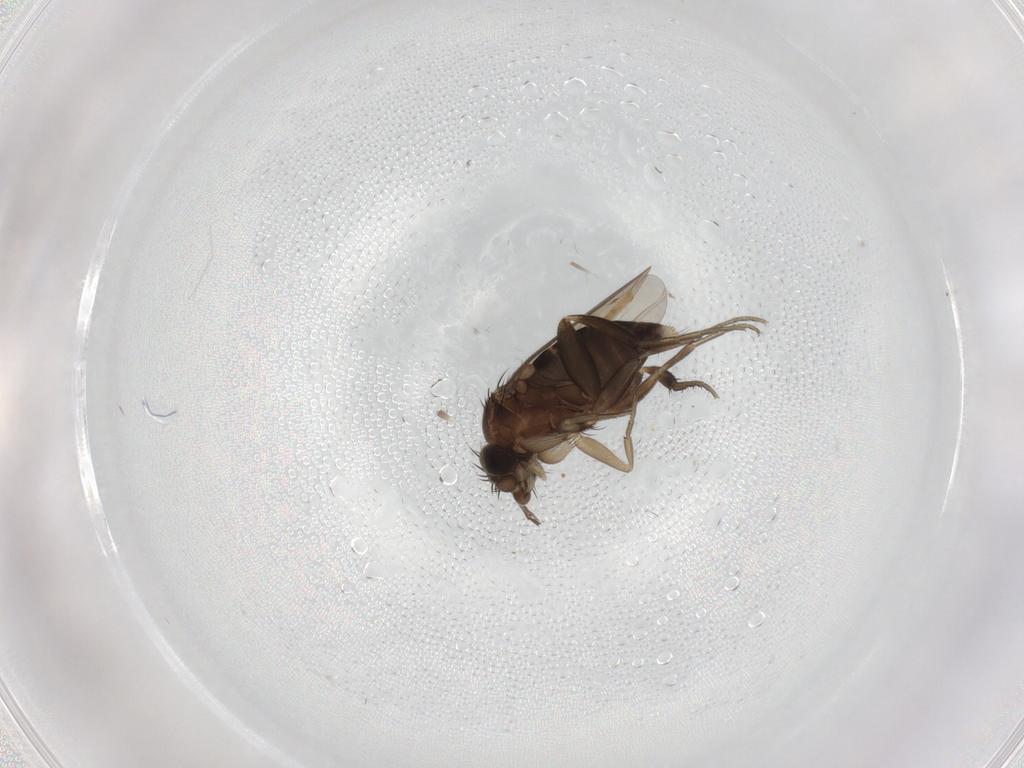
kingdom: Animalia
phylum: Arthropoda
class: Insecta
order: Diptera
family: Phoridae
